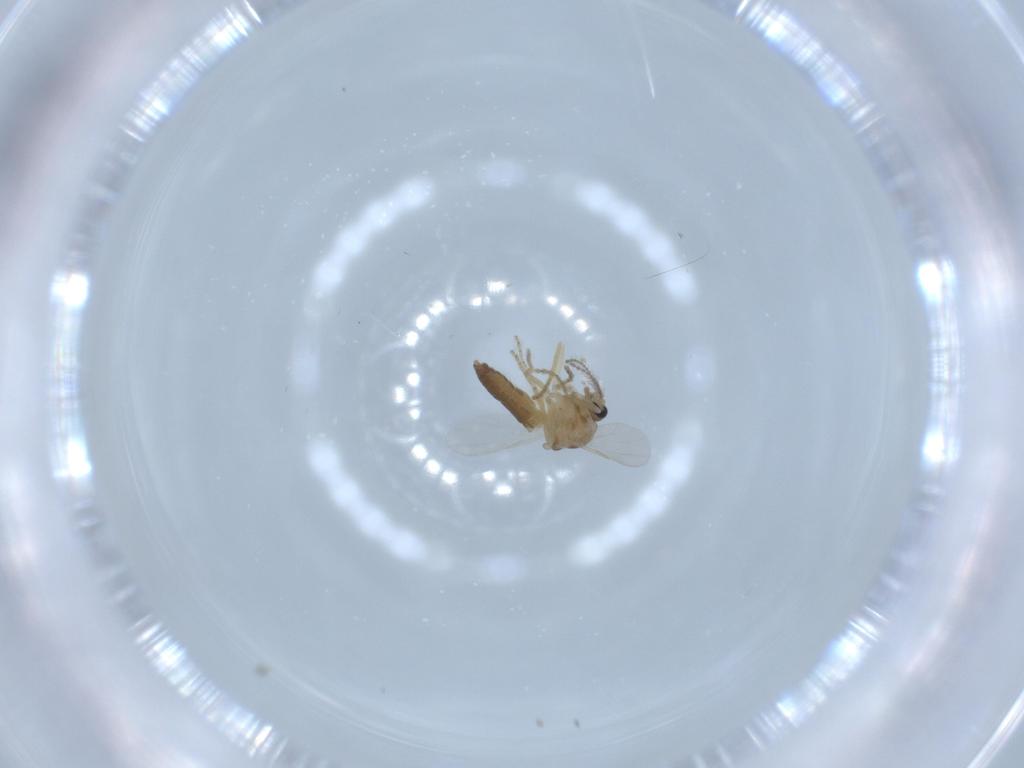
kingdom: Animalia
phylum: Arthropoda
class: Insecta
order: Diptera
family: Ceratopogonidae
